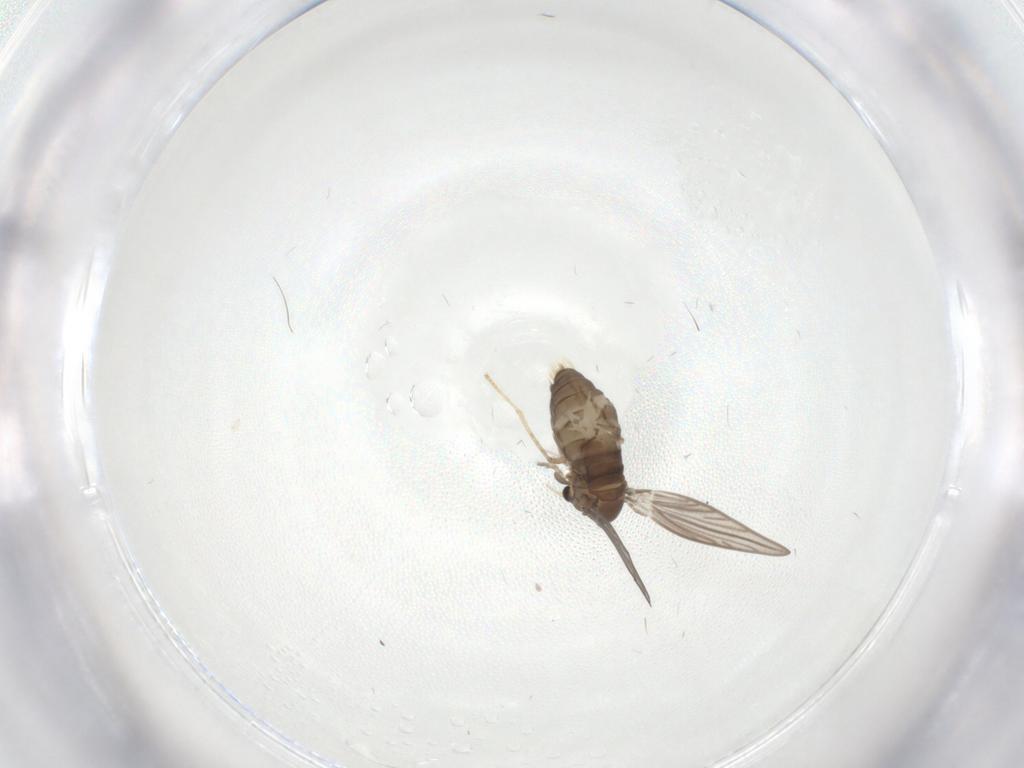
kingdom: Animalia
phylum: Arthropoda
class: Insecta
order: Diptera
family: Psychodidae
